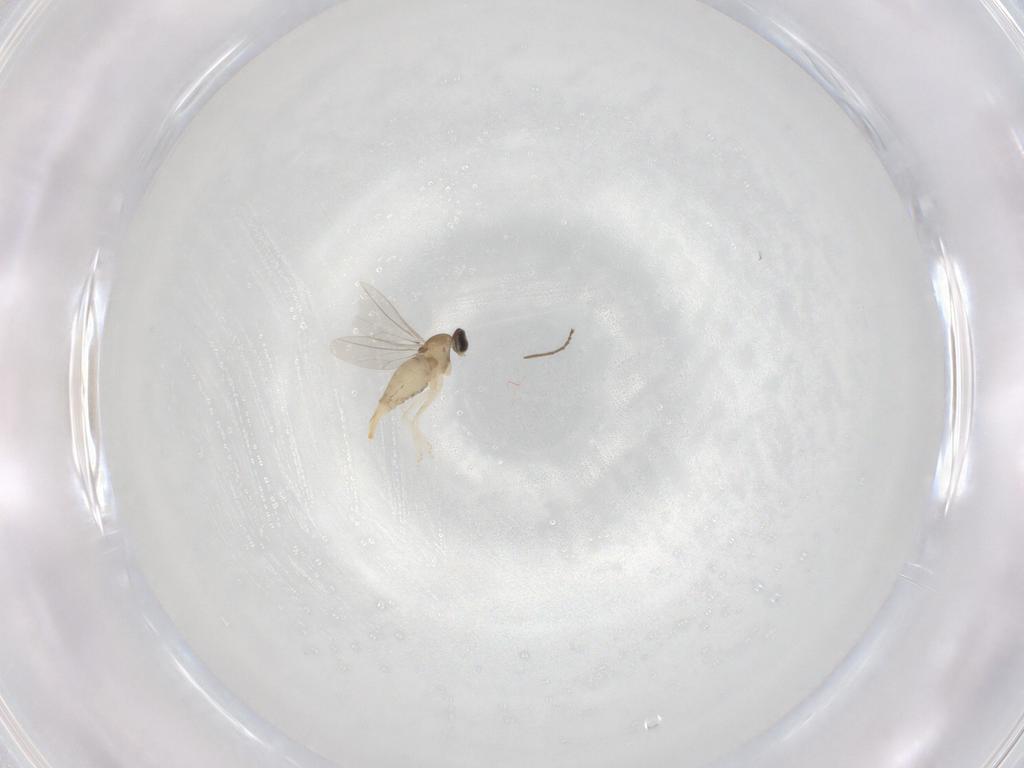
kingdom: Animalia
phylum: Arthropoda
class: Insecta
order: Diptera
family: Cecidomyiidae
